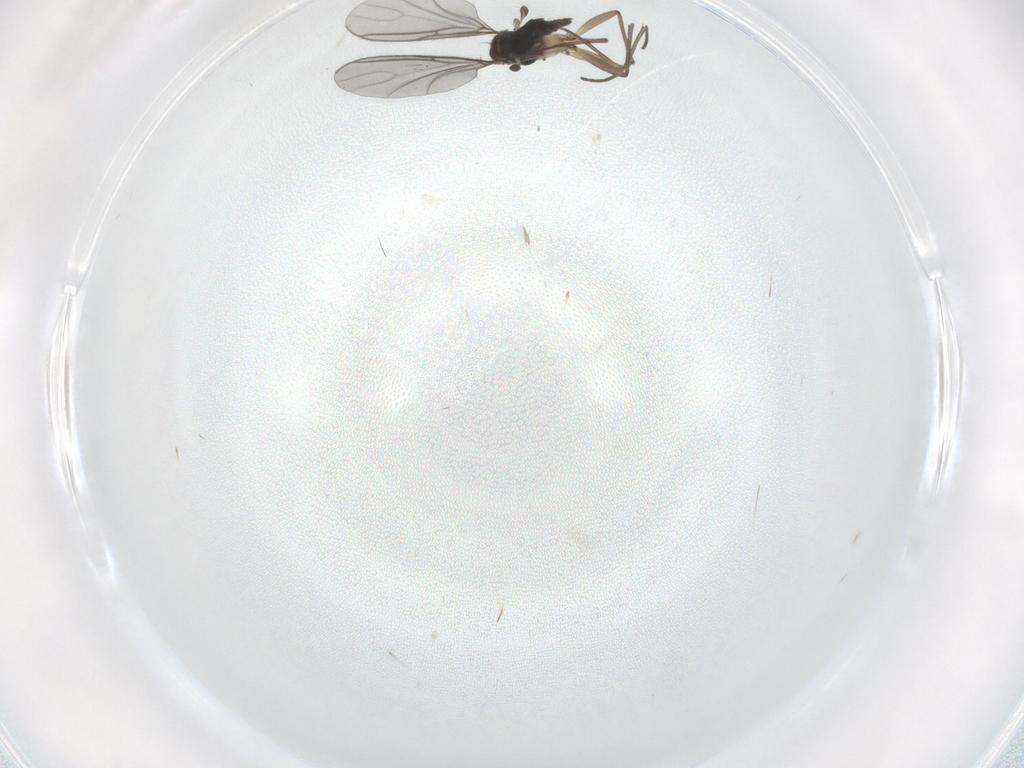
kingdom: Animalia
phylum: Arthropoda
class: Insecta
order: Diptera
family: Sciaridae
